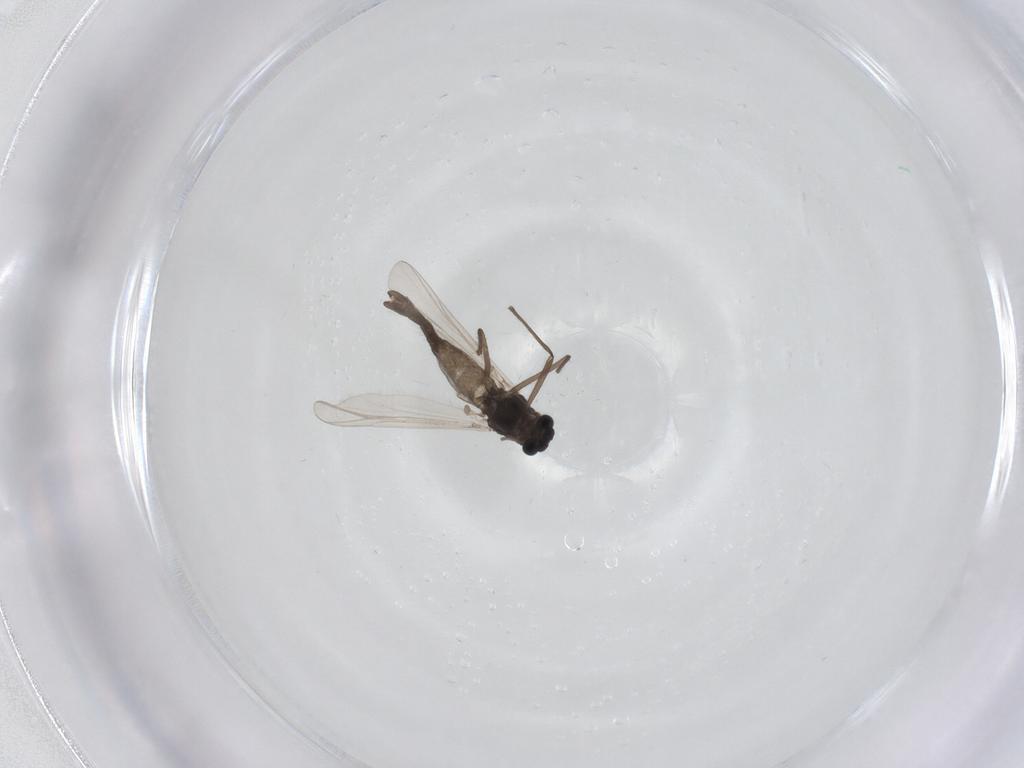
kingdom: Animalia
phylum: Arthropoda
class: Insecta
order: Diptera
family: Chironomidae
